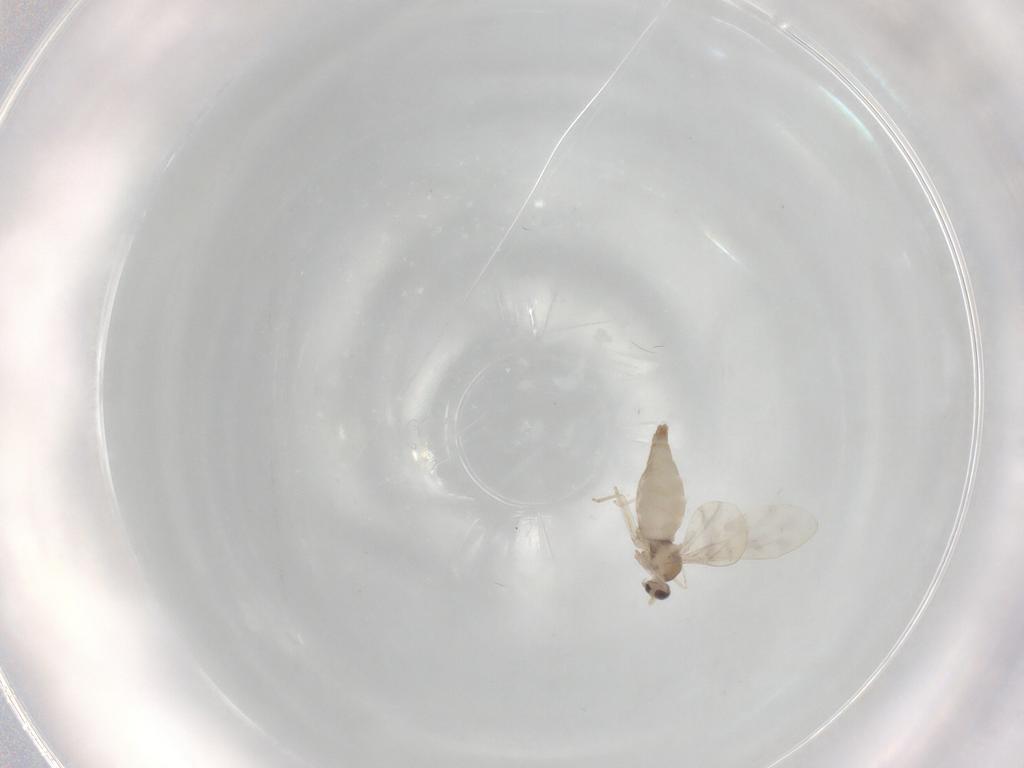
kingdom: Animalia
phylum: Arthropoda
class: Insecta
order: Diptera
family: Cecidomyiidae
